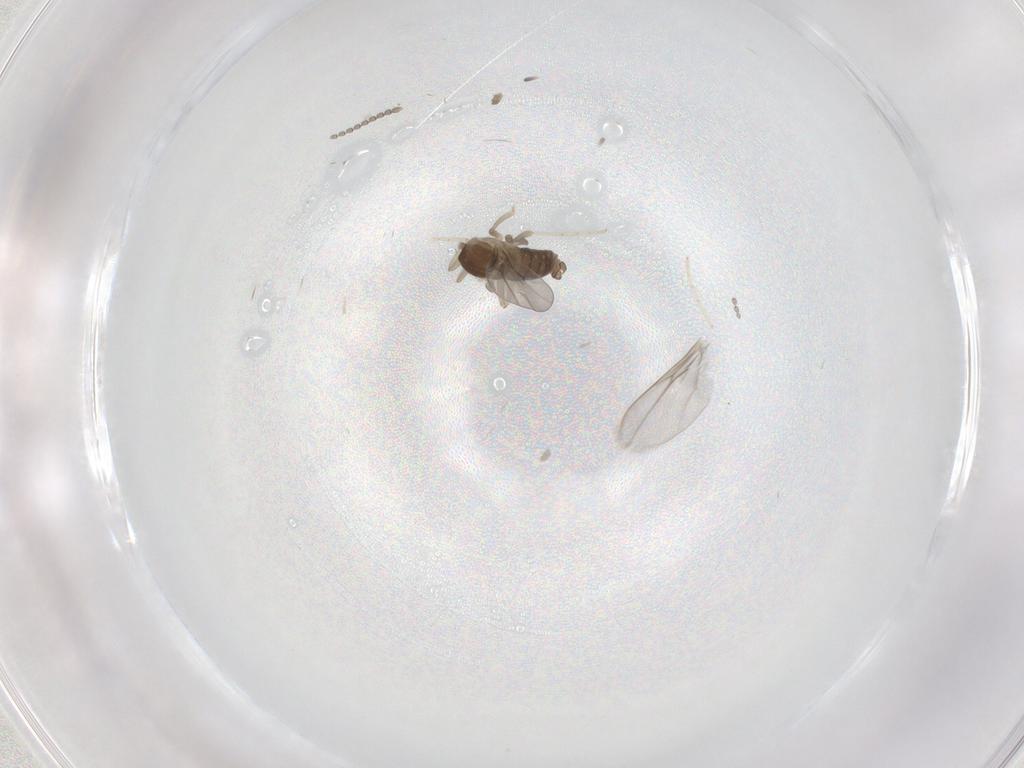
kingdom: Animalia
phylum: Arthropoda
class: Insecta
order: Diptera
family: Cecidomyiidae
